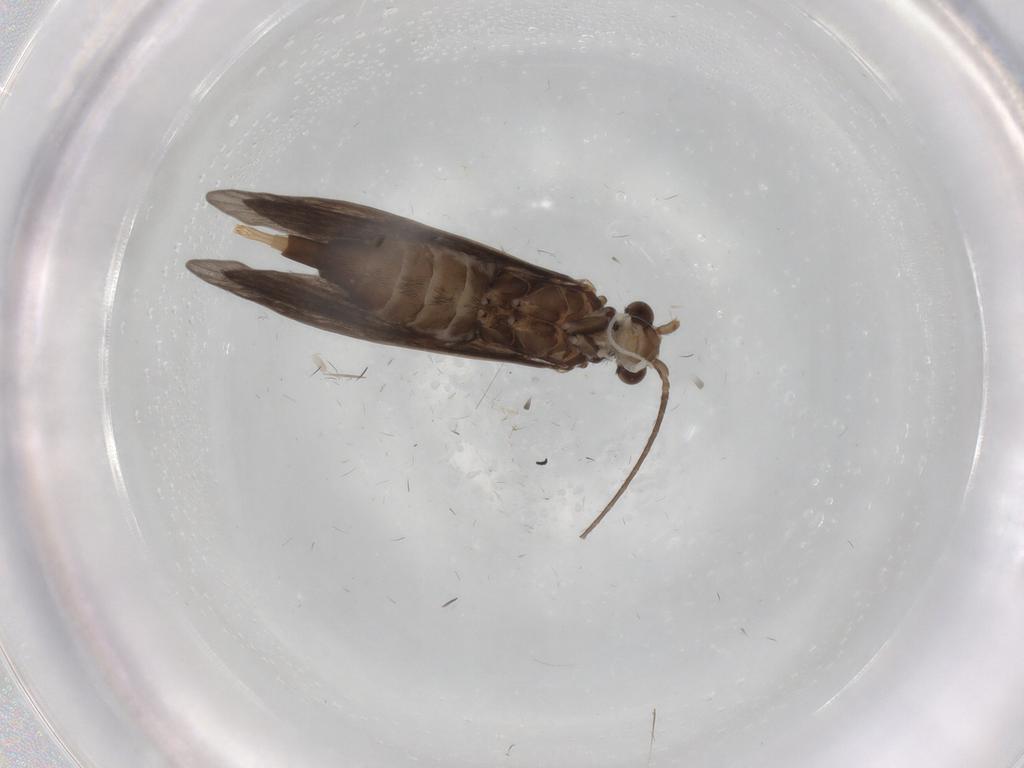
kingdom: Animalia
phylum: Arthropoda
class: Insecta
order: Trichoptera
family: Xiphocentronidae
